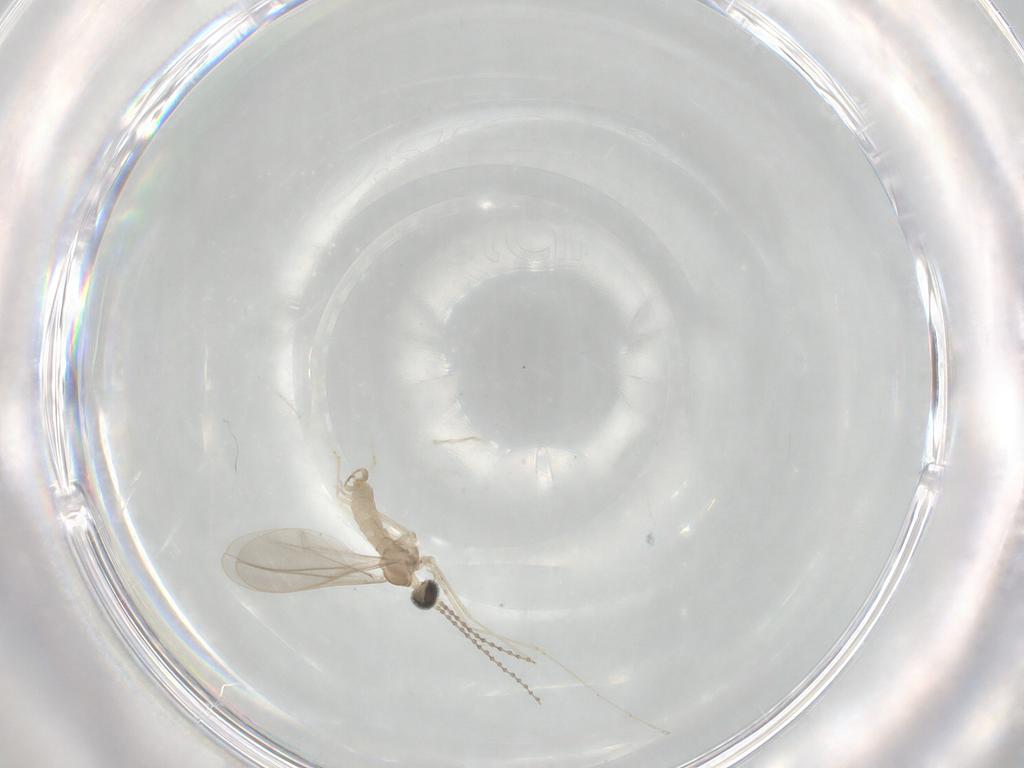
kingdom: Animalia
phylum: Arthropoda
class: Insecta
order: Diptera
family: Cecidomyiidae
